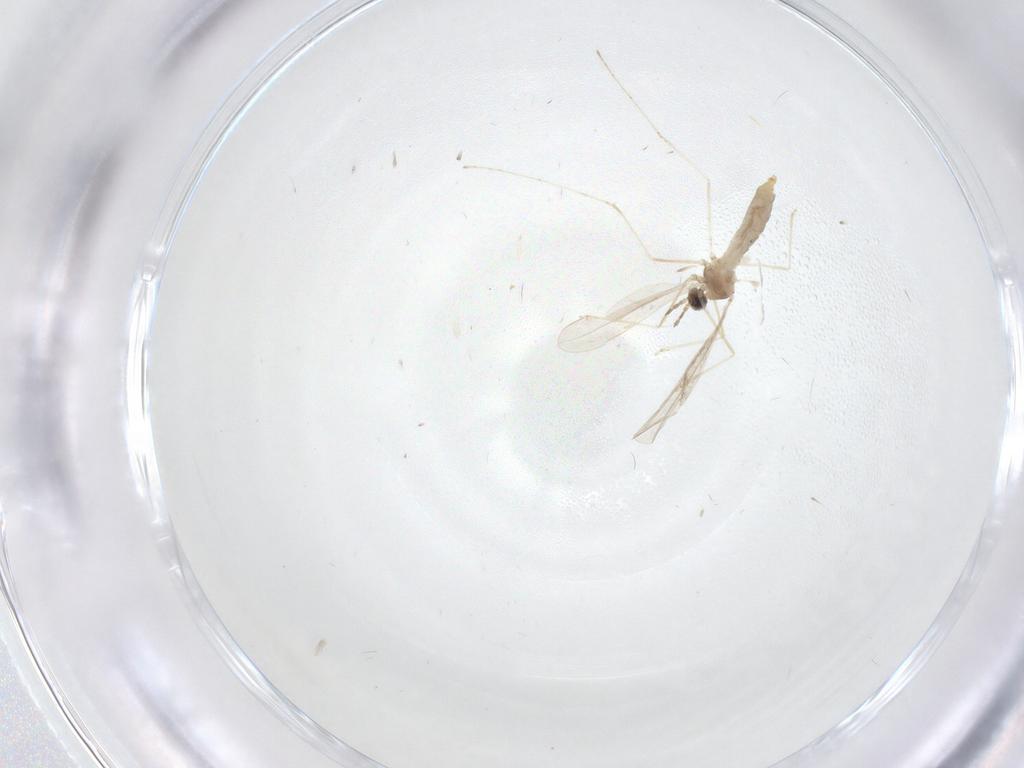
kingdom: Animalia
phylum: Arthropoda
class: Insecta
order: Diptera
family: Cecidomyiidae
